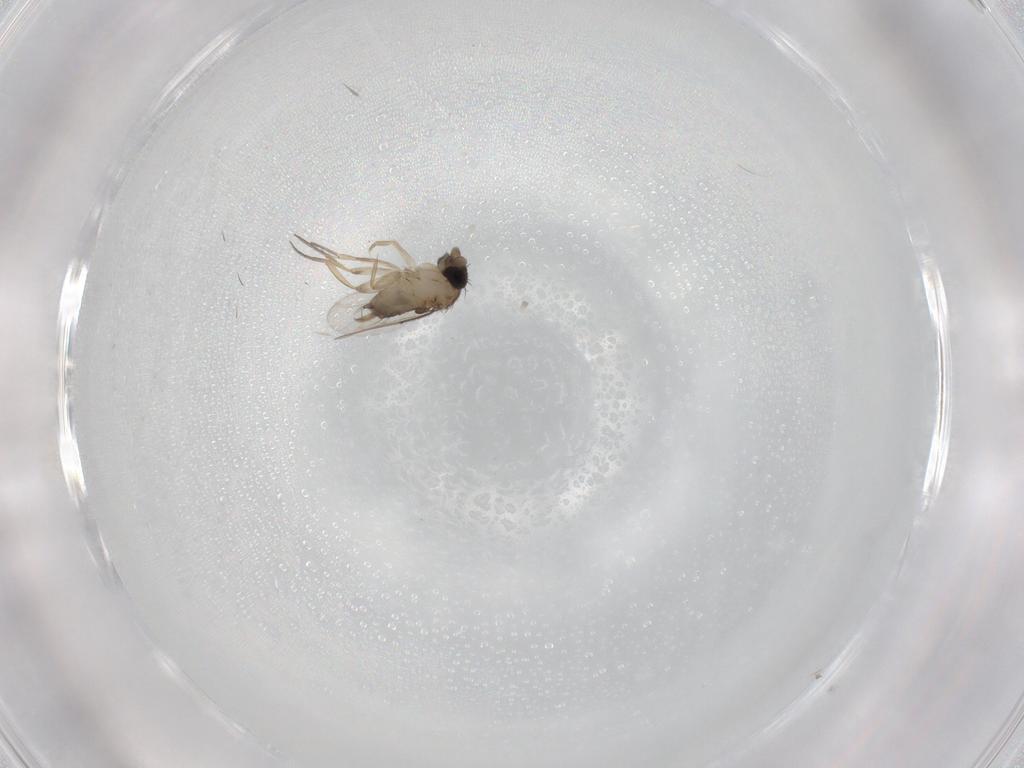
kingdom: Animalia
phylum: Arthropoda
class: Insecta
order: Diptera
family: Phoridae
